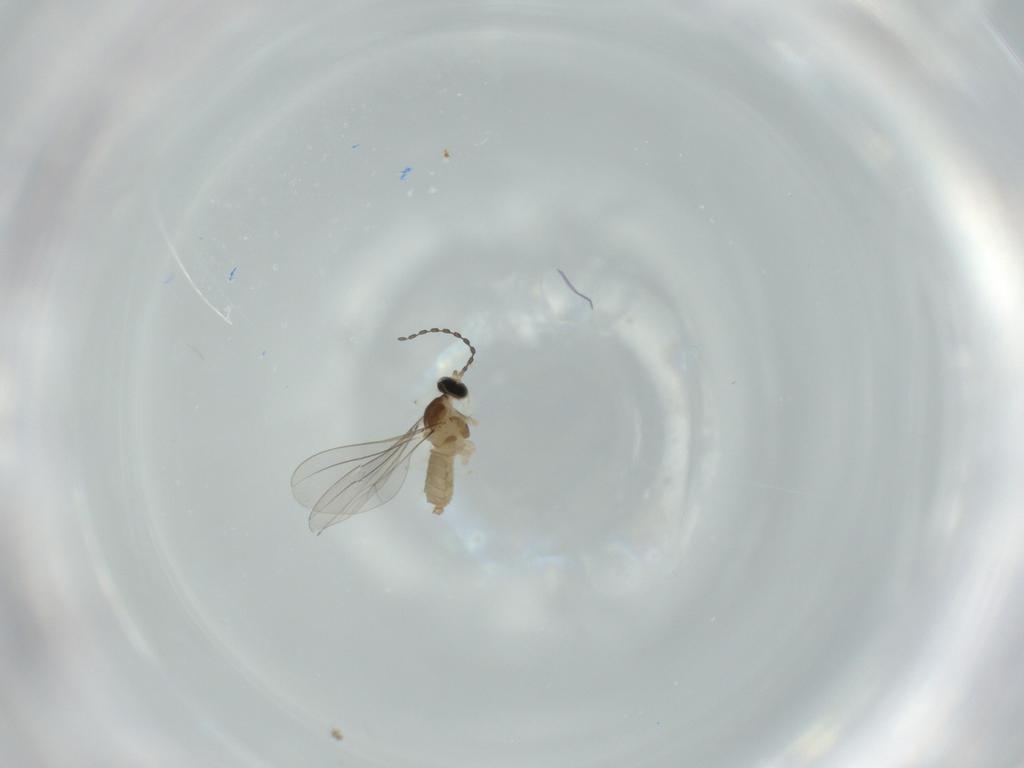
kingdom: Animalia
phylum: Arthropoda
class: Insecta
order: Diptera
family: Cecidomyiidae
